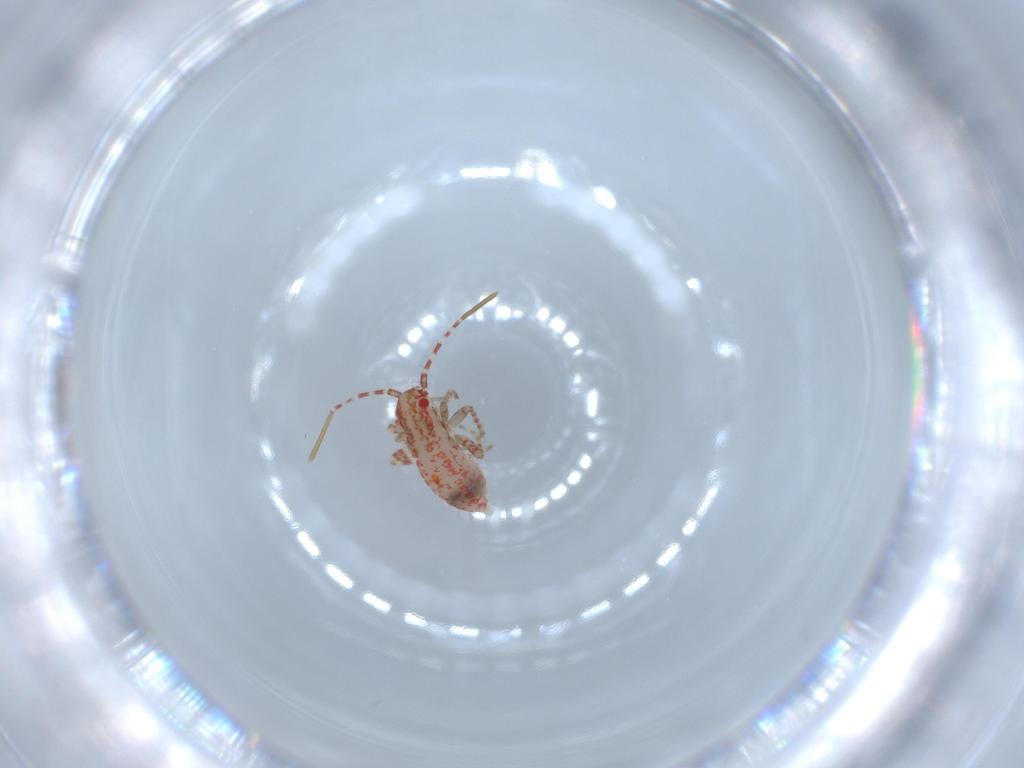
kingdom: Animalia
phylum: Arthropoda
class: Insecta
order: Hemiptera
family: Miridae
